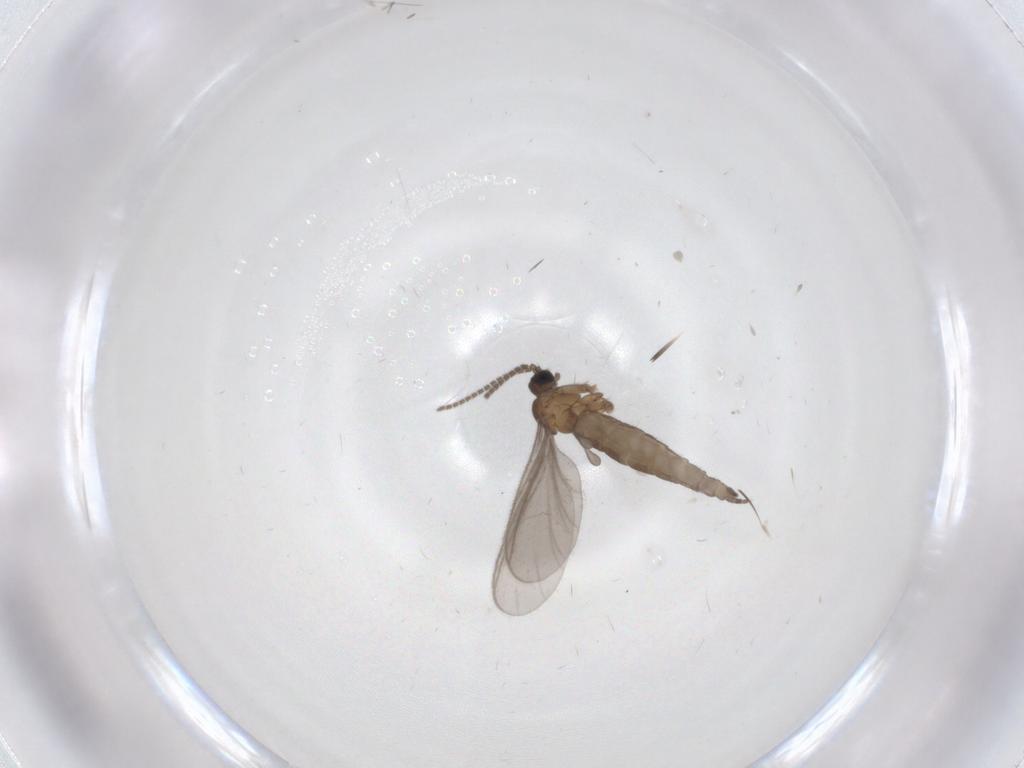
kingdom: Animalia
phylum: Arthropoda
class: Insecta
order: Diptera
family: Sciaridae
